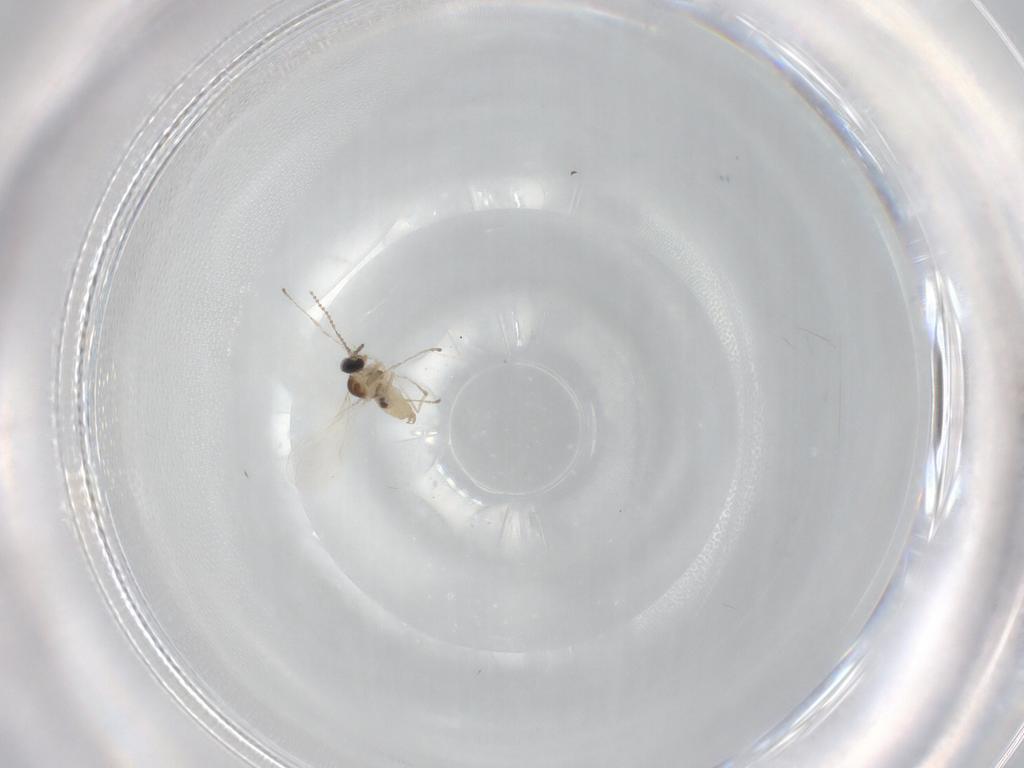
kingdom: Animalia
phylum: Arthropoda
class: Insecta
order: Diptera
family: Cecidomyiidae
